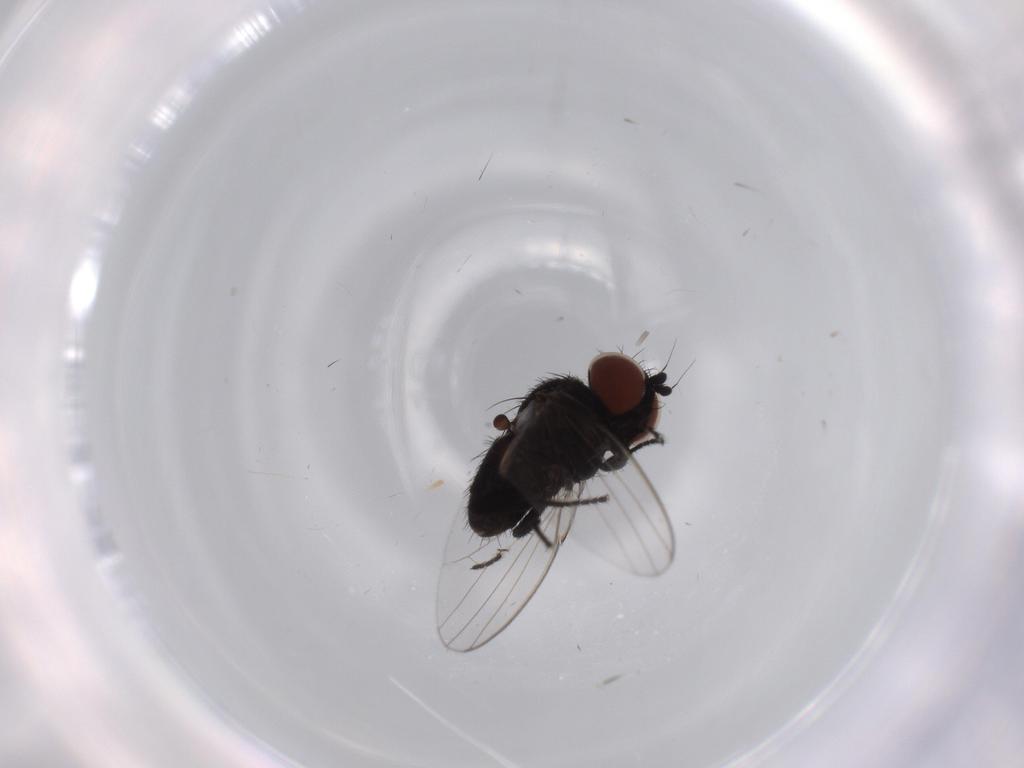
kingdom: Animalia
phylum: Arthropoda
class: Insecta
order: Diptera
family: Milichiidae
